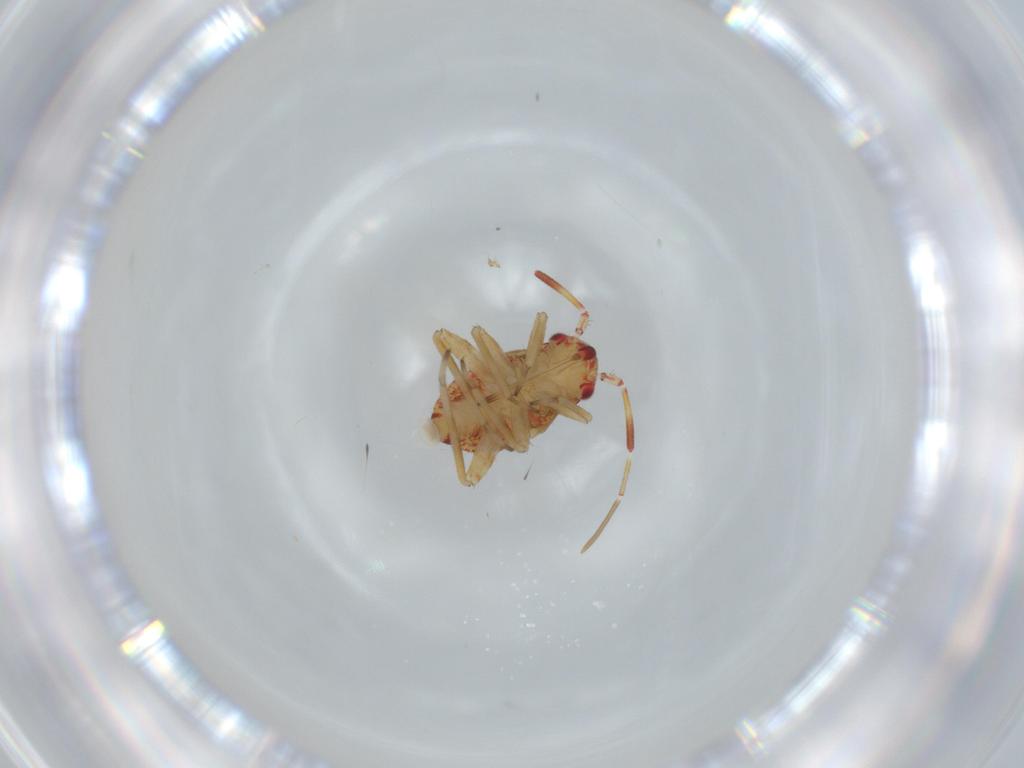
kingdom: Animalia
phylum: Arthropoda
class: Insecta
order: Hemiptera
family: Miridae
